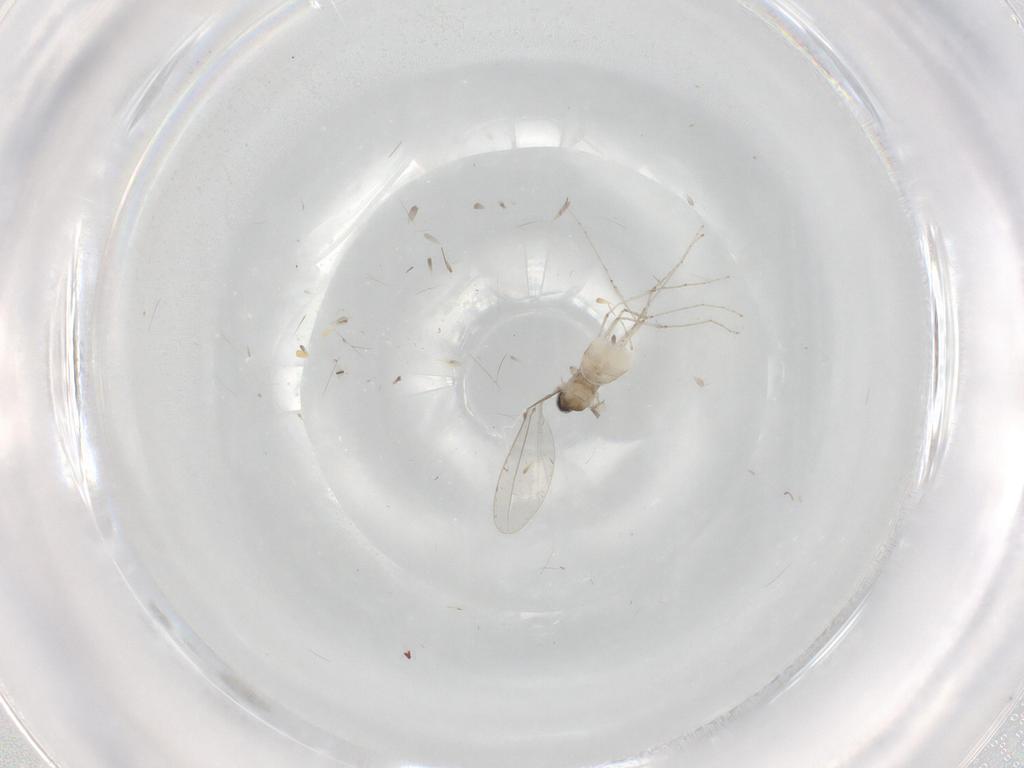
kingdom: Animalia
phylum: Arthropoda
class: Insecta
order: Diptera
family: Cecidomyiidae
